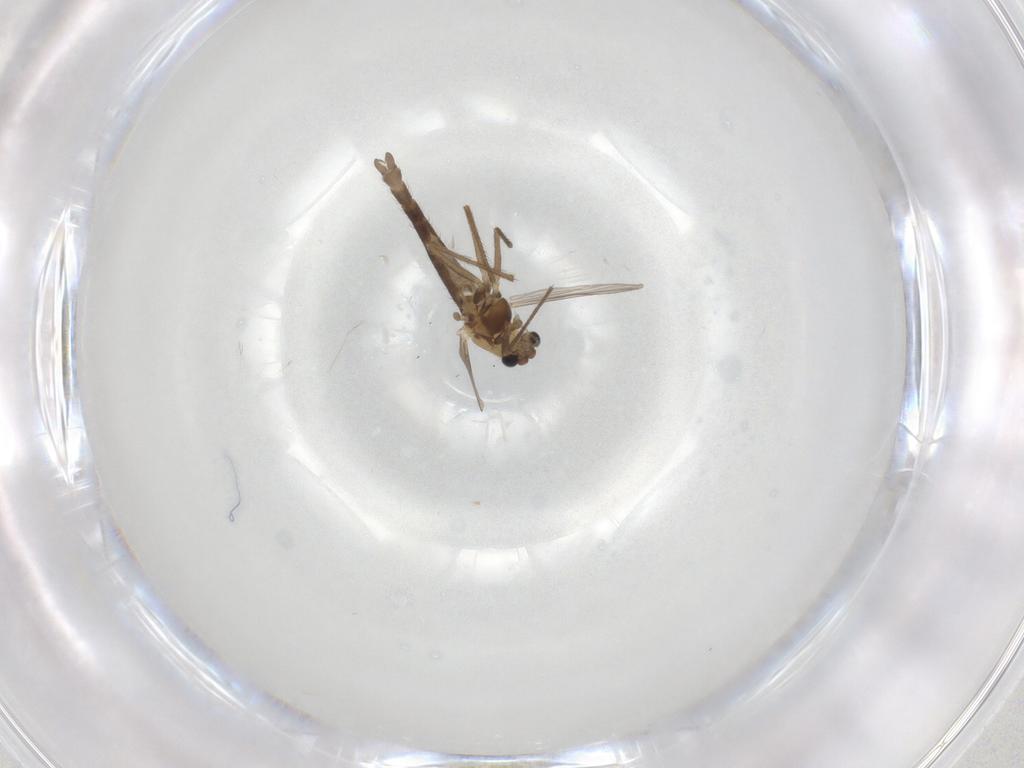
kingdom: Animalia
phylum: Arthropoda
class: Insecta
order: Diptera
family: Chironomidae
